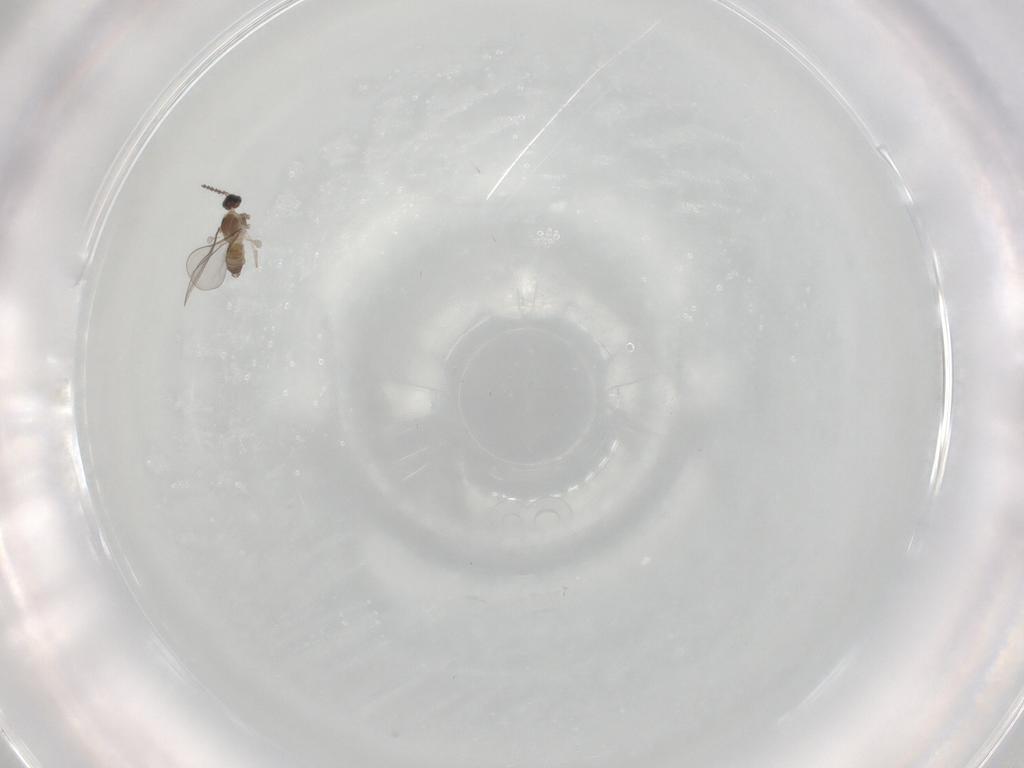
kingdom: Animalia
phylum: Arthropoda
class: Insecta
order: Diptera
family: Cecidomyiidae
